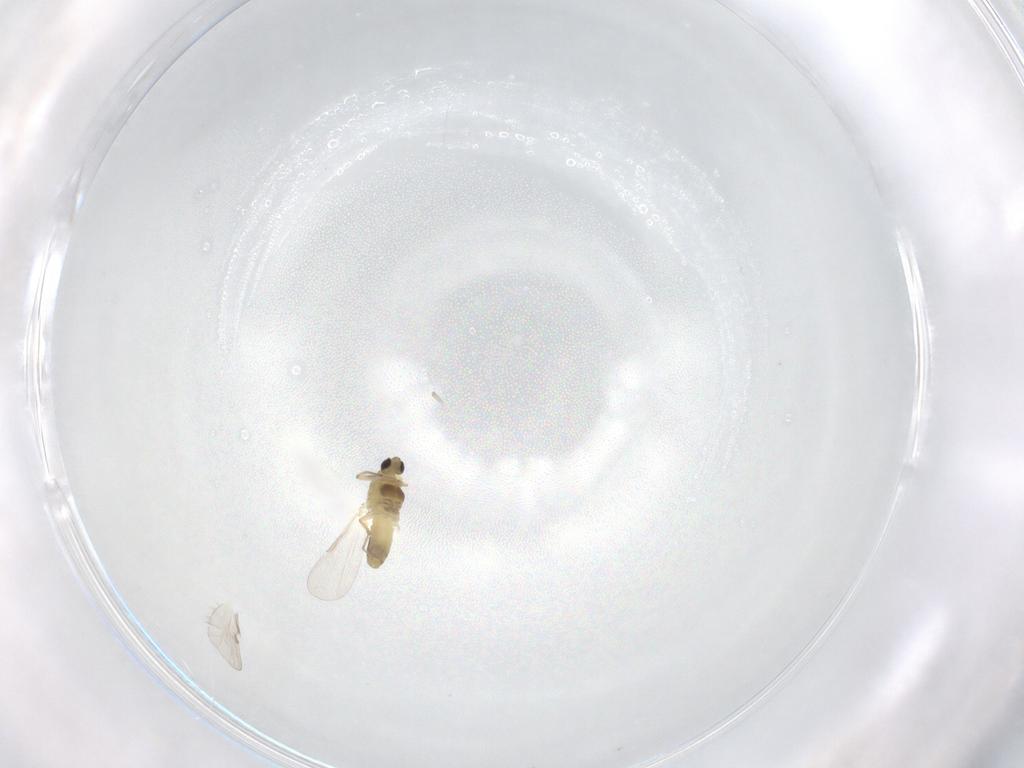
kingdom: Animalia
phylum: Arthropoda
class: Insecta
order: Diptera
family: Chironomidae
